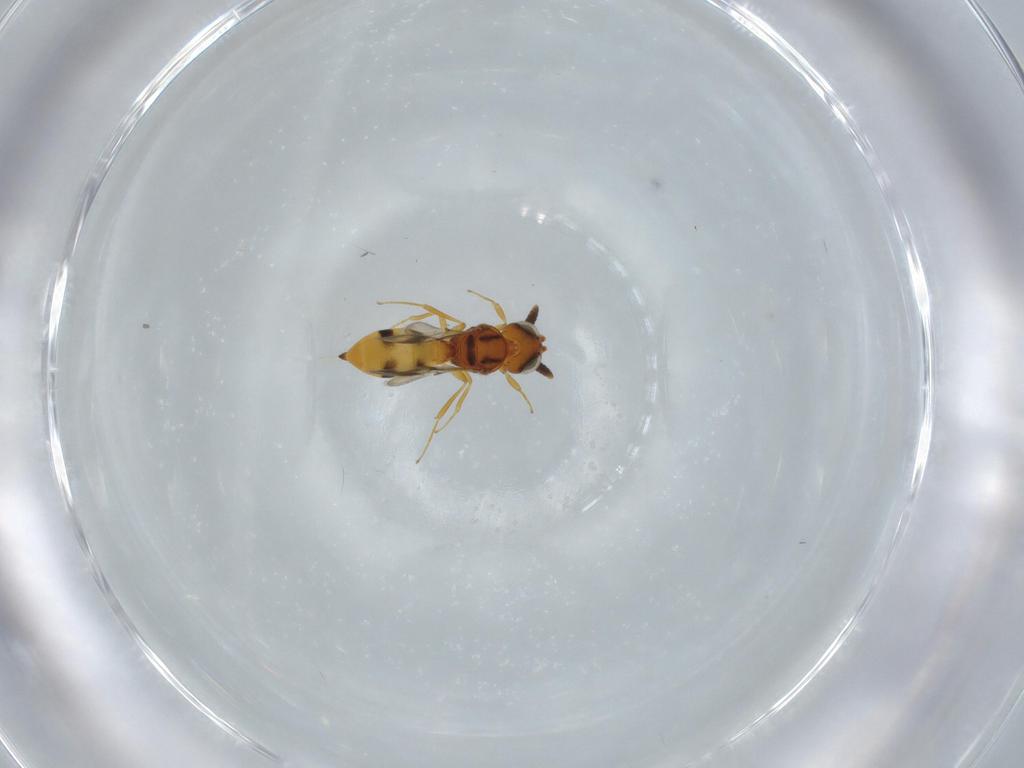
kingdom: Animalia
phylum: Arthropoda
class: Insecta
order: Hymenoptera
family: Scelionidae
